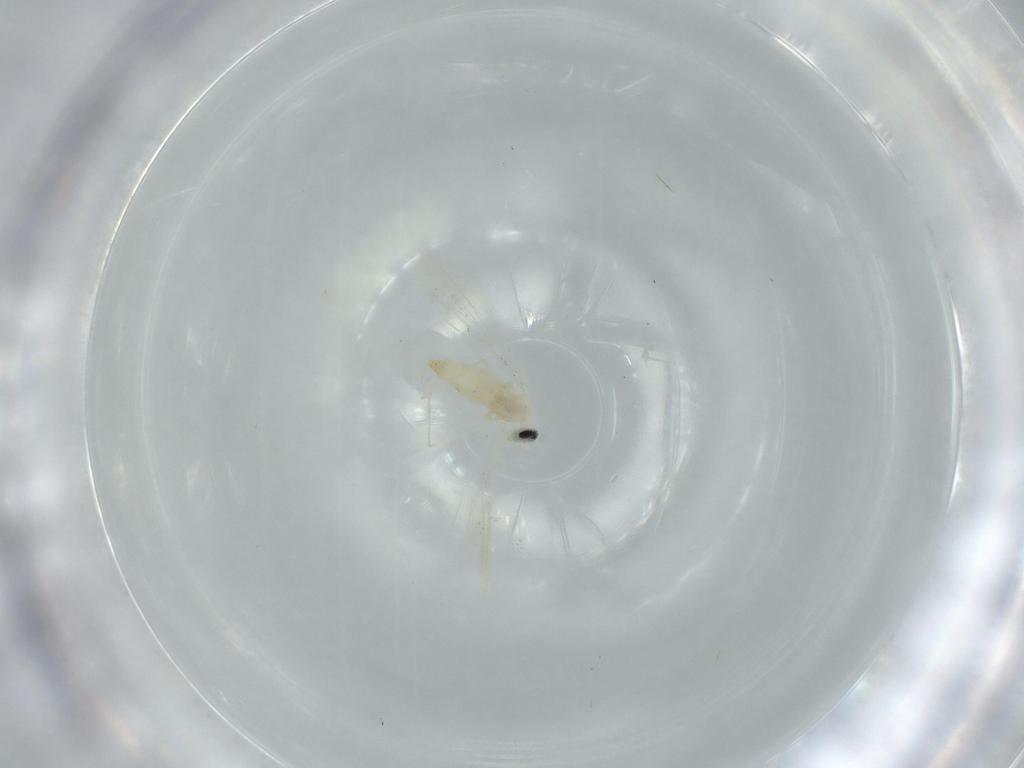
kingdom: Animalia
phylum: Arthropoda
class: Insecta
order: Diptera
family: Cecidomyiidae
